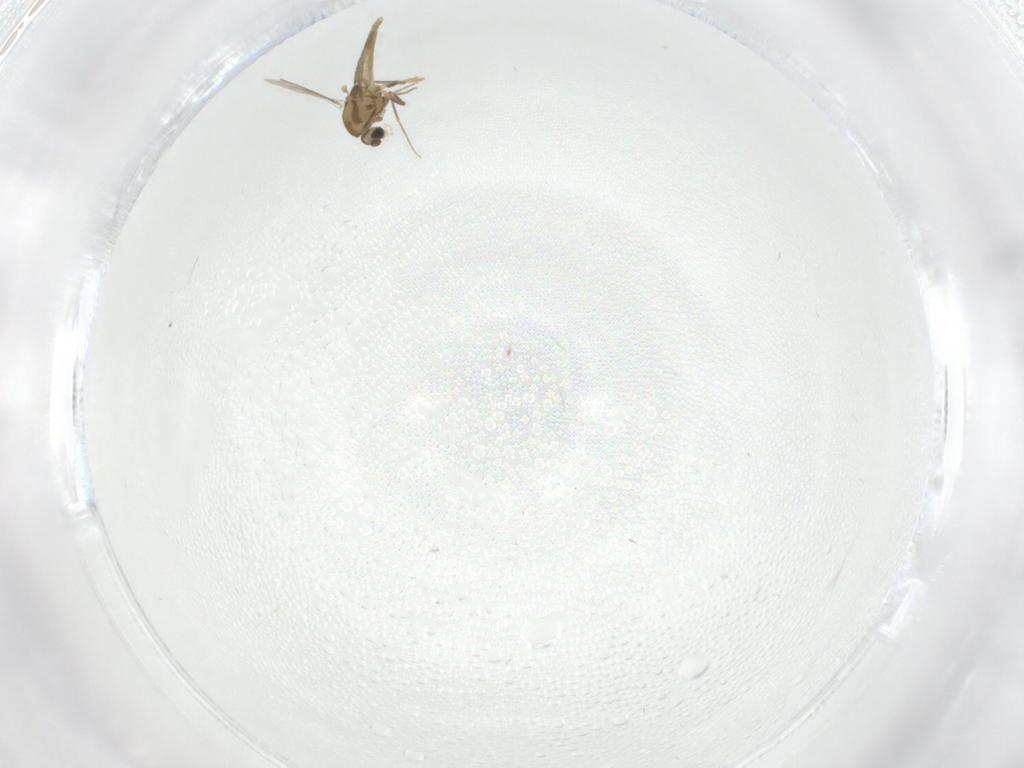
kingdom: Animalia
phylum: Arthropoda
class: Insecta
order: Diptera
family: Chironomidae
